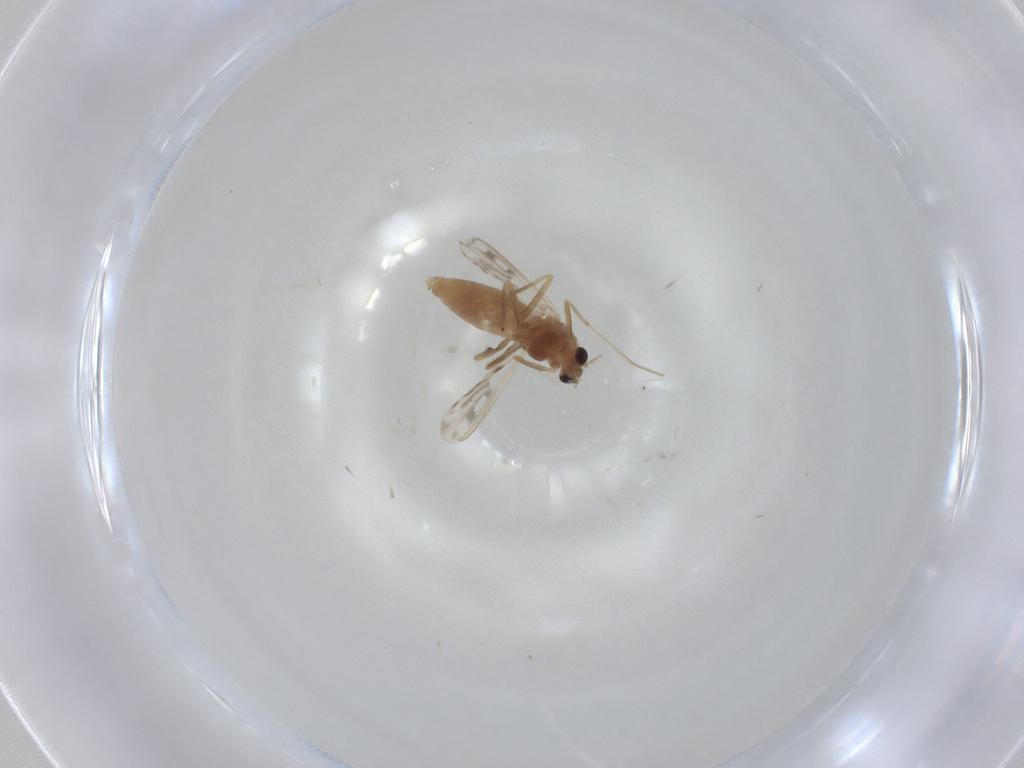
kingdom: Animalia
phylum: Arthropoda
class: Insecta
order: Diptera
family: Chironomidae
